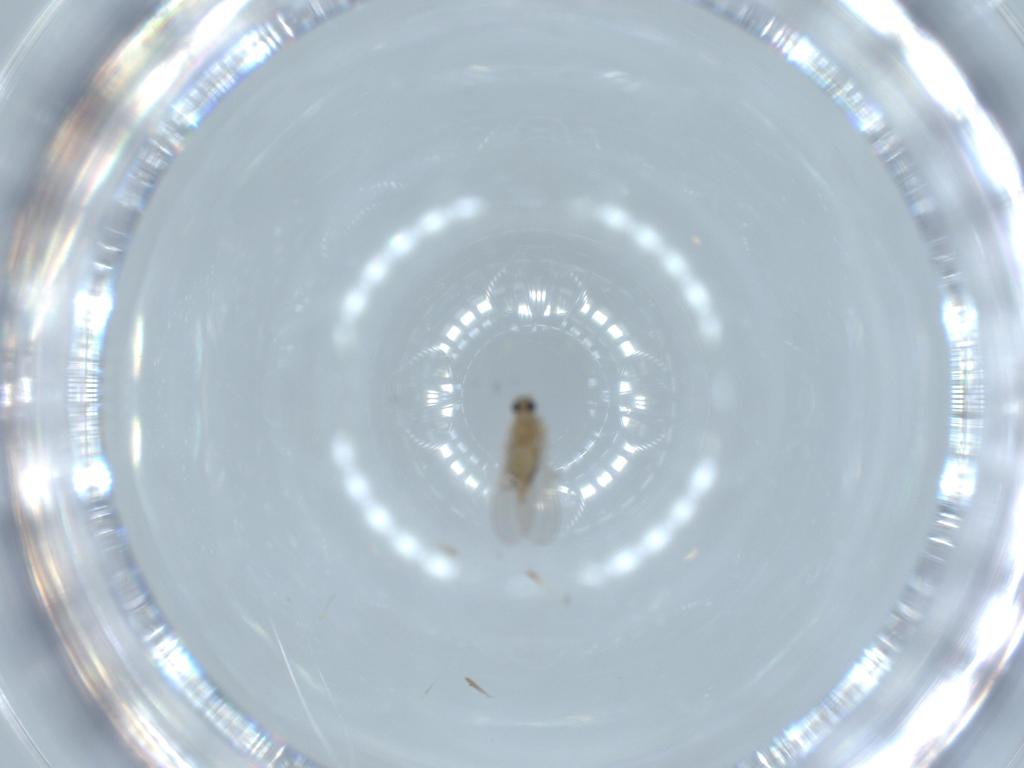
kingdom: Animalia
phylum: Arthropoda
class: Insecta
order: Diptera
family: Cecidomyiidae
